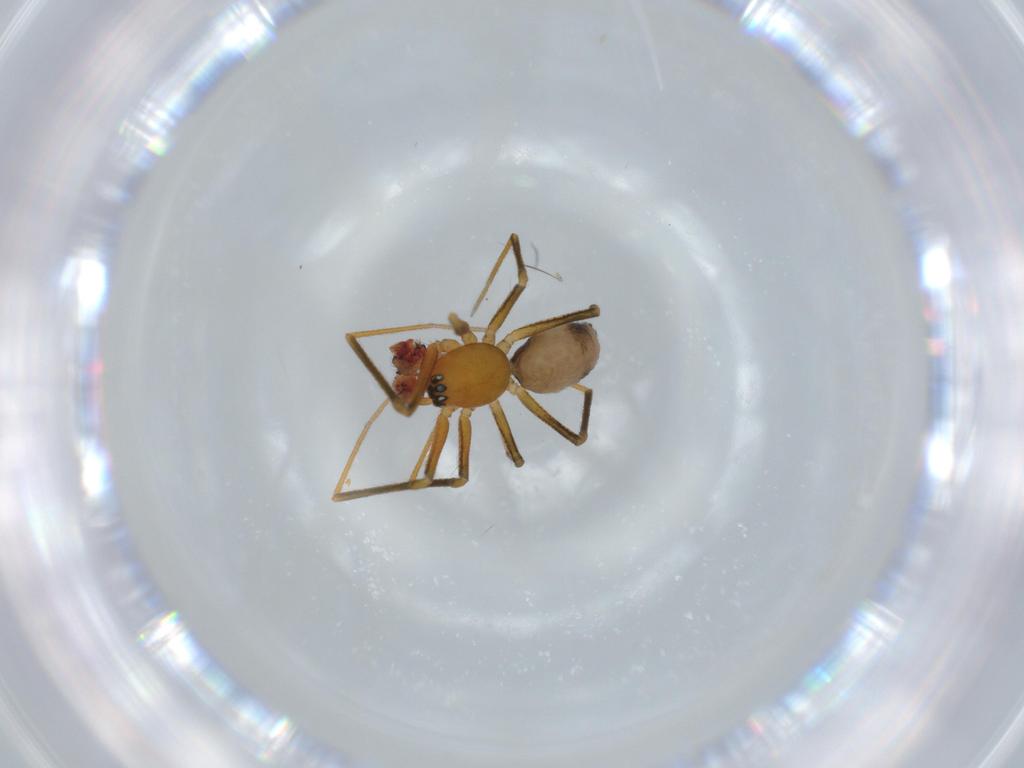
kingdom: Animalia
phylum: Arthropoda
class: Arachnida
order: Araneae
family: Linyphiidae
